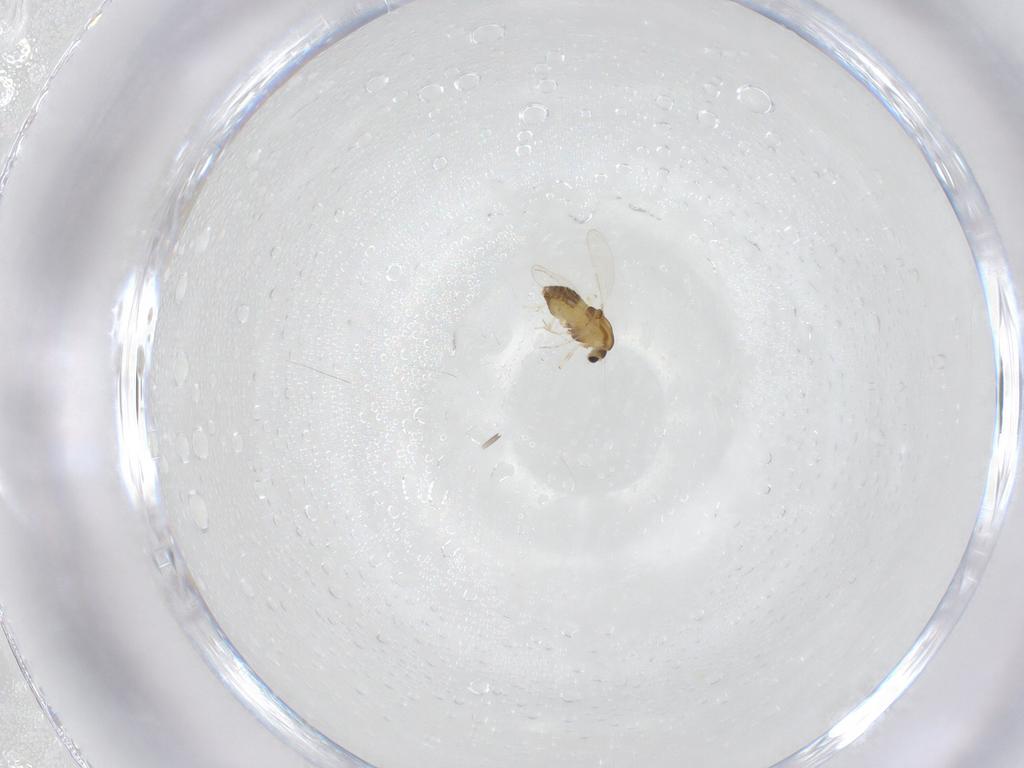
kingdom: Animalia
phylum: Arthropoda
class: Insecta
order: Diptera
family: Chironomidae
